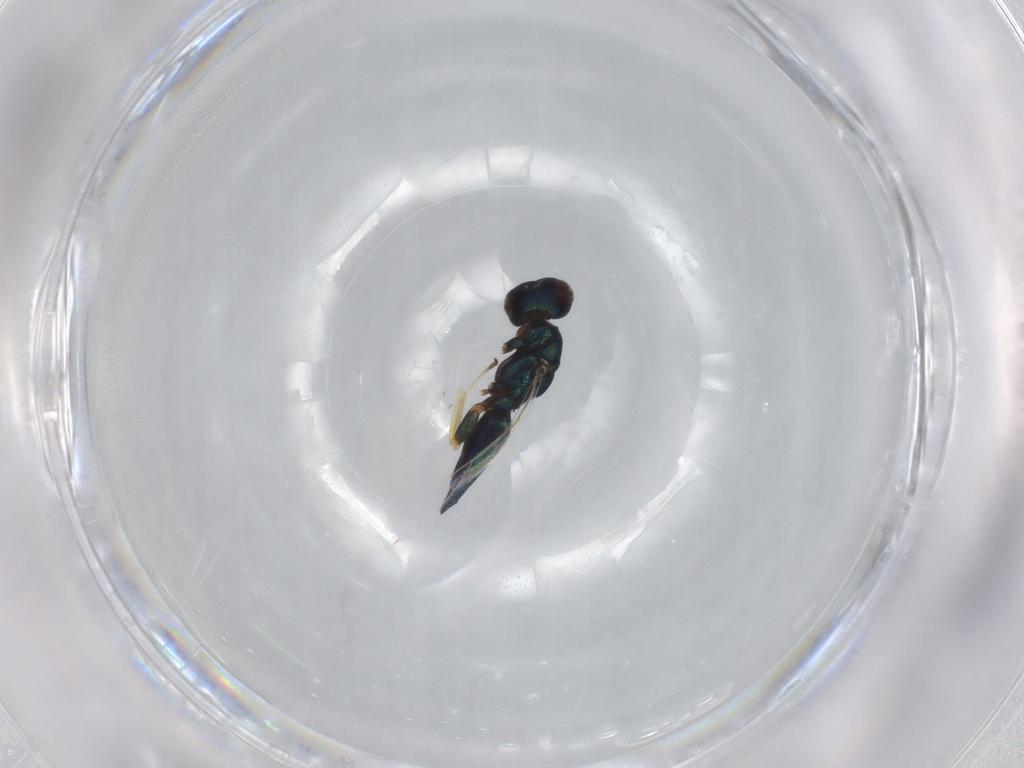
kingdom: Animalia
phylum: Arthropoda
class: Insecta
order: Hymenoptera
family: Pteromalidae
